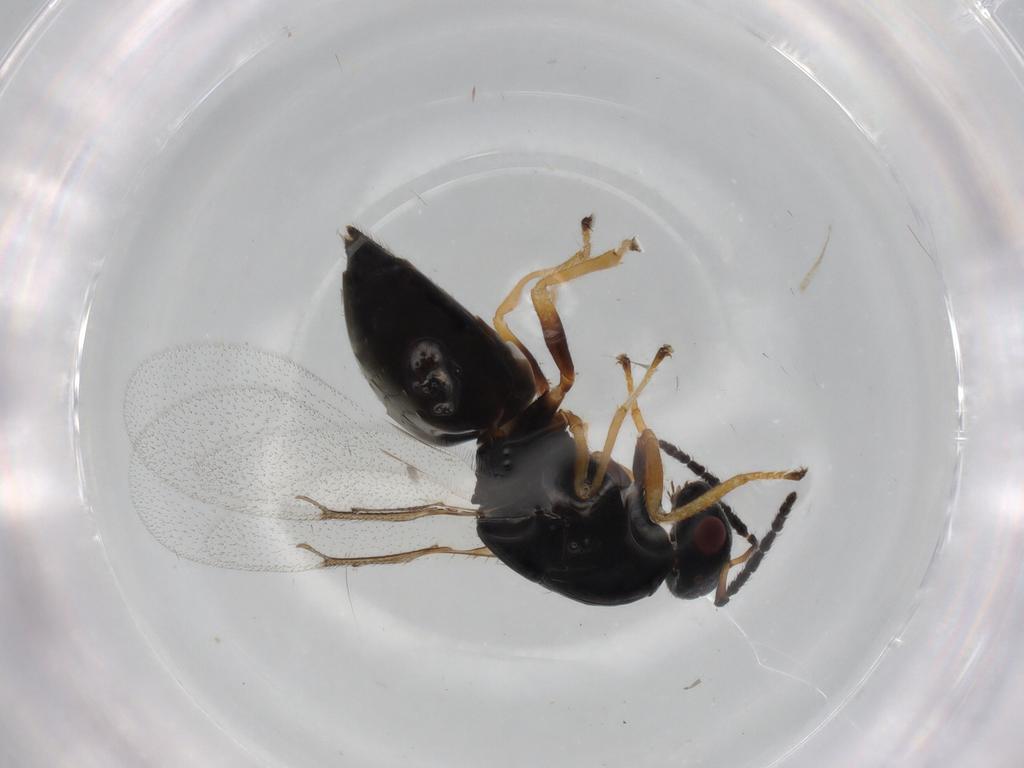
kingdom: Animalia
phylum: Arthropoda
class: Insecta
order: Hymenoptera
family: Eulophidae
